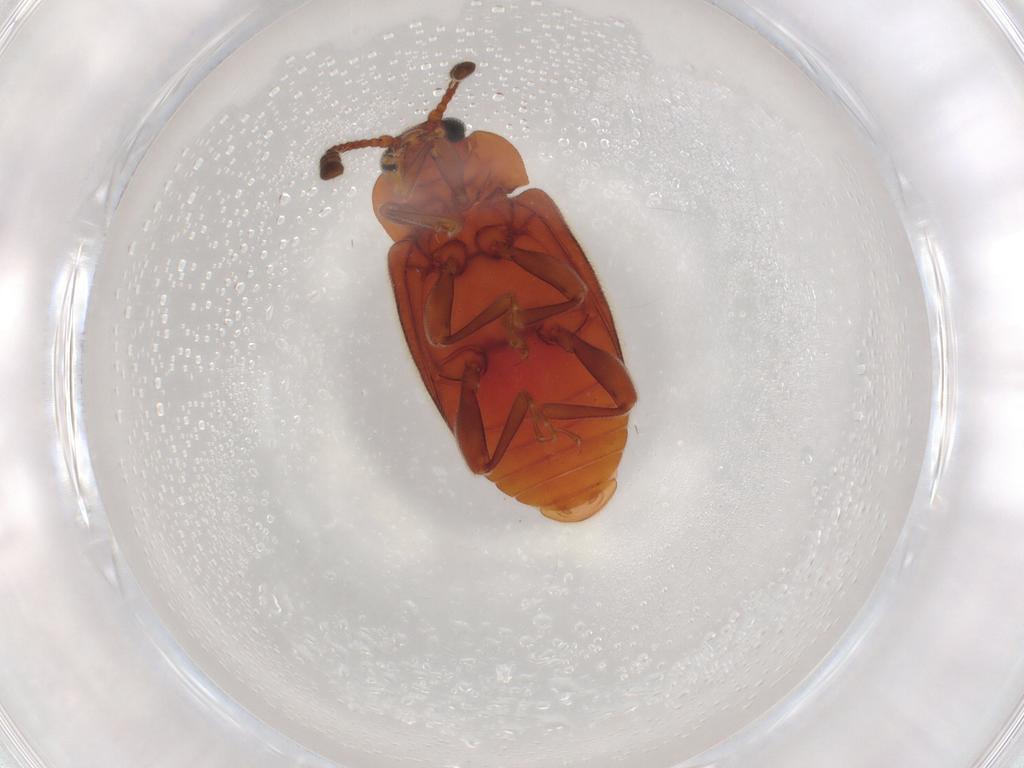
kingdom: Animalia
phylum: Arthropoda
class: Insecta
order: Coleoptera
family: Endomychidae
